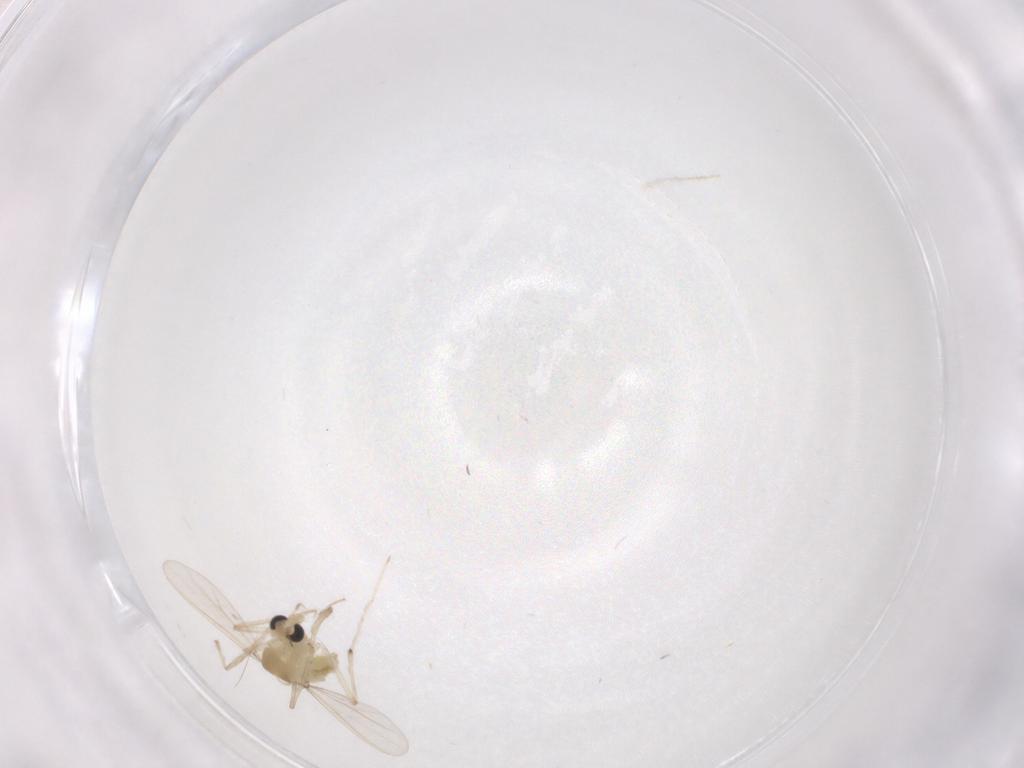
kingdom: Animalia
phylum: Arthropoda
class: Insecta
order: Diptera
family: Chironomidae
